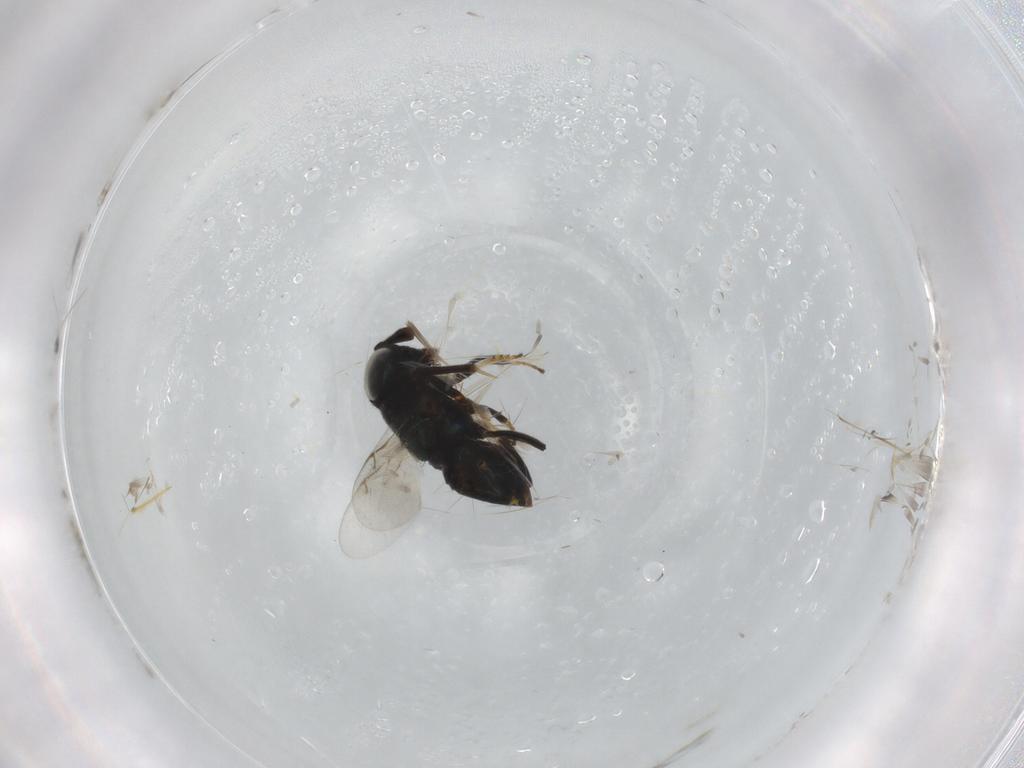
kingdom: Animalia
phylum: Arthropoda
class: Insecta
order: Hymenoptera
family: Encyrtidae
